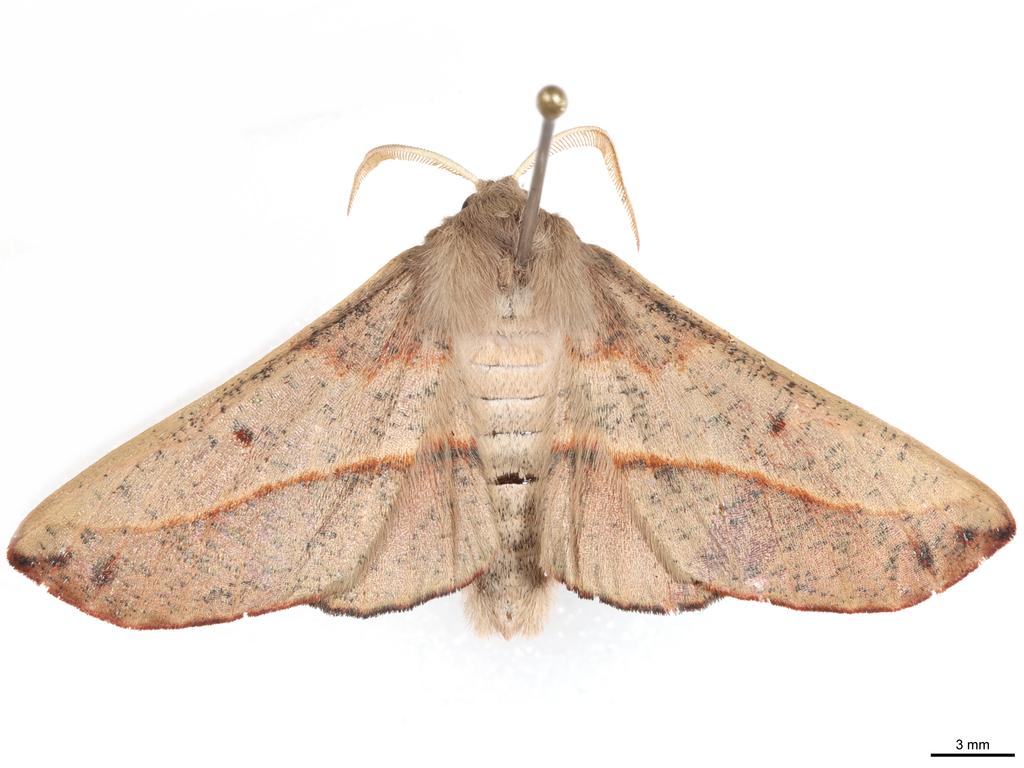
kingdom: Animalia
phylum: Arthropoda
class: Insecta
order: Lepidoptera
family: Geometridae
